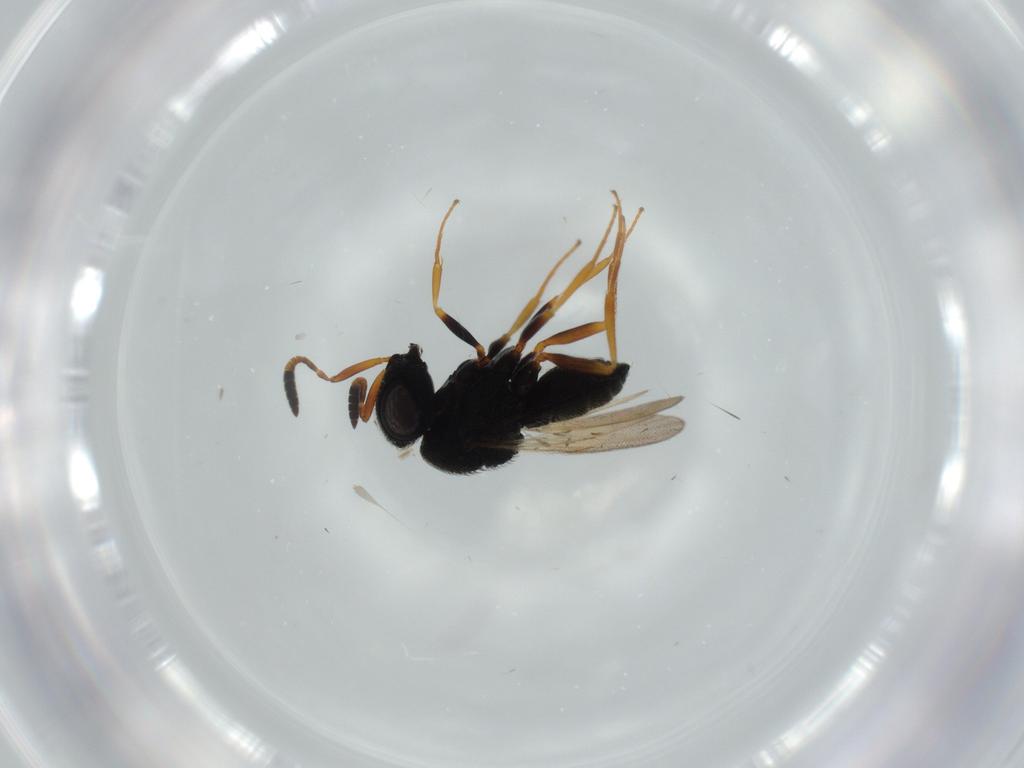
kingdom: Animalia
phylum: Arthropoda
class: Insecta
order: Hymenoptera
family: Scelionidae
